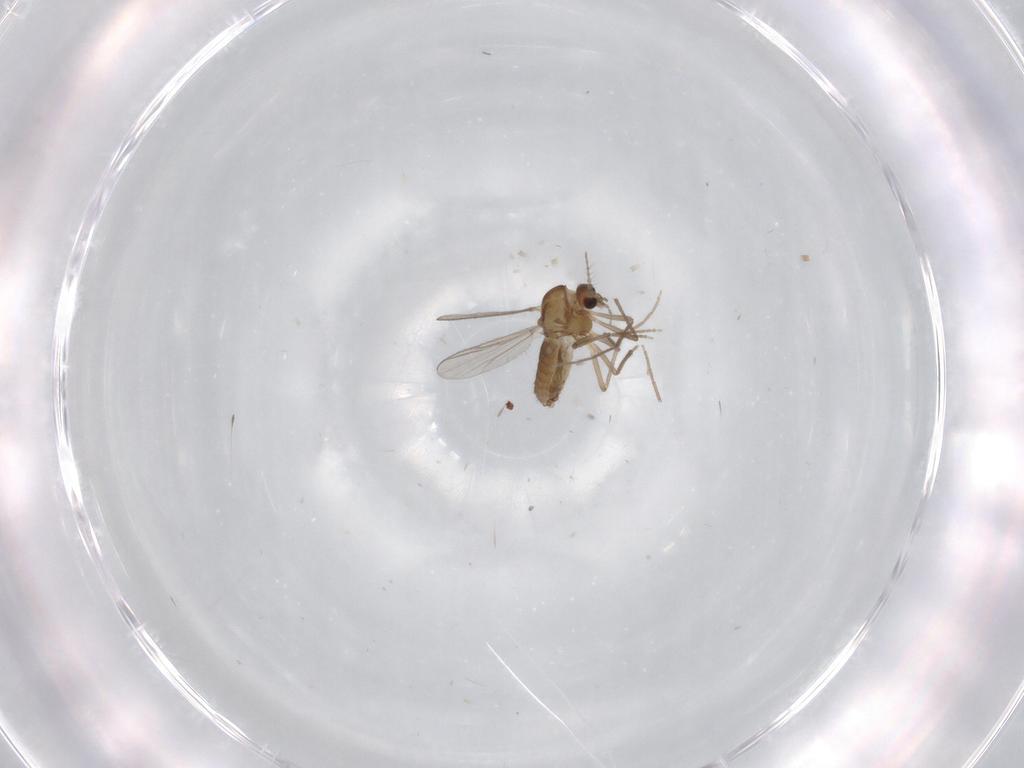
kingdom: Animalia
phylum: Arthropoda
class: Insecta
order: Diptera
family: Chironomidae
